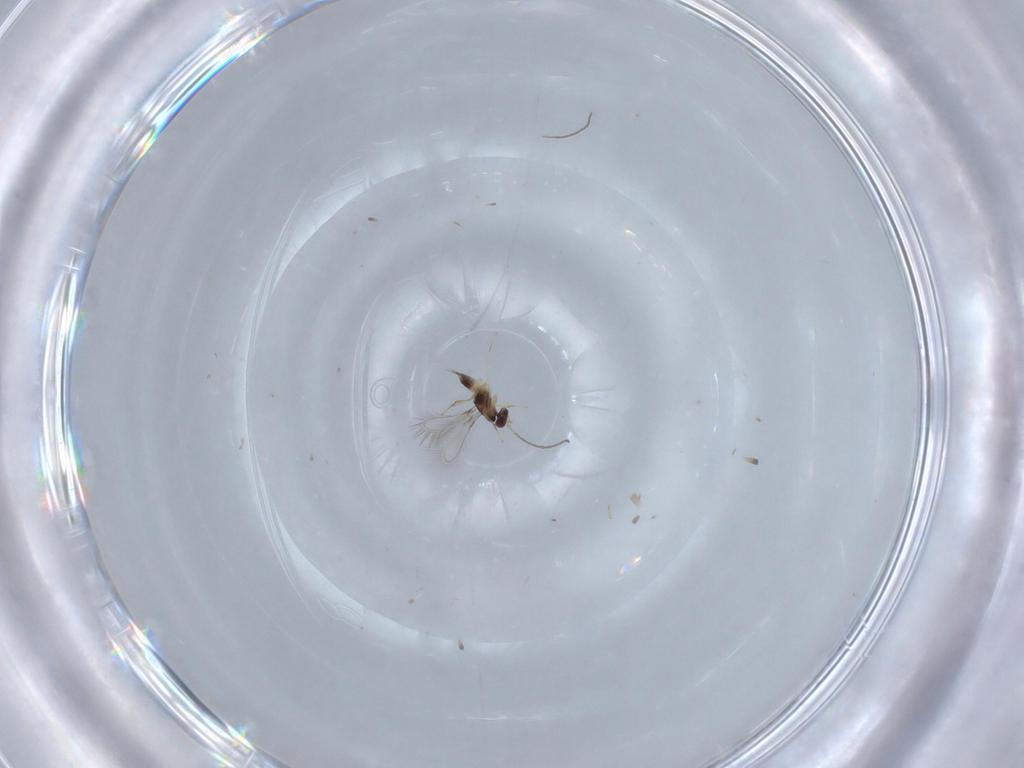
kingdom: Animalia
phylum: Arthropoda
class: Insecta
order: Hymenoptera
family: Mymaridae
